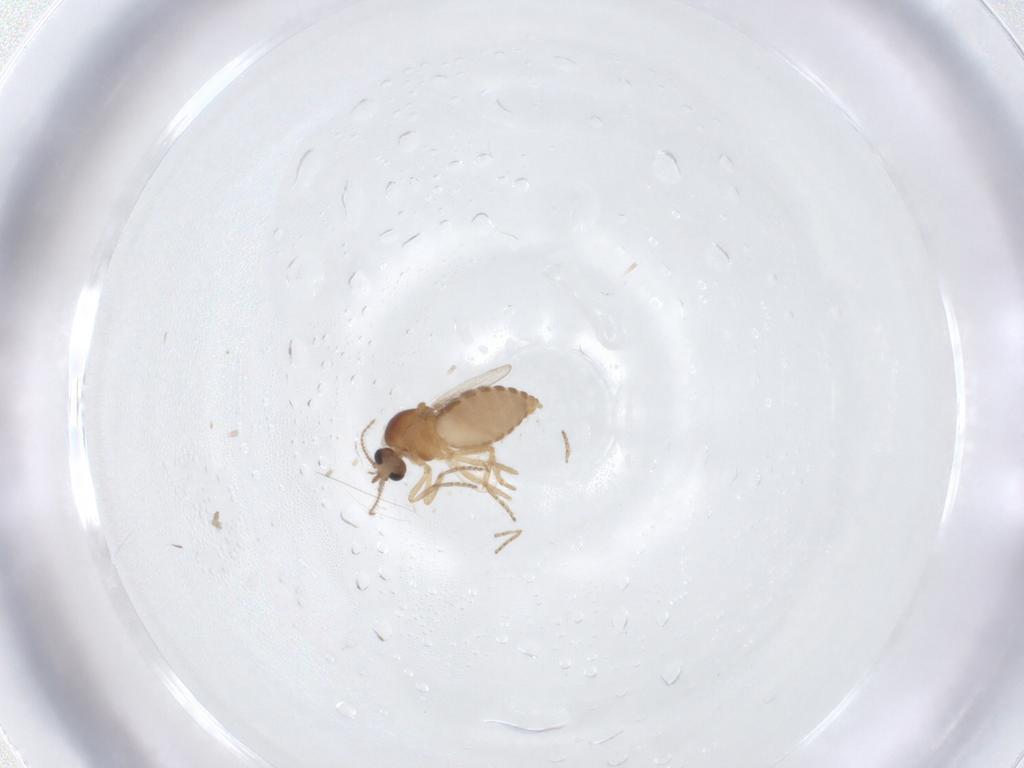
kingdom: Animalia
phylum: Arthropoda
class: Insecta
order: Diptera
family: Ceratopogonidae
